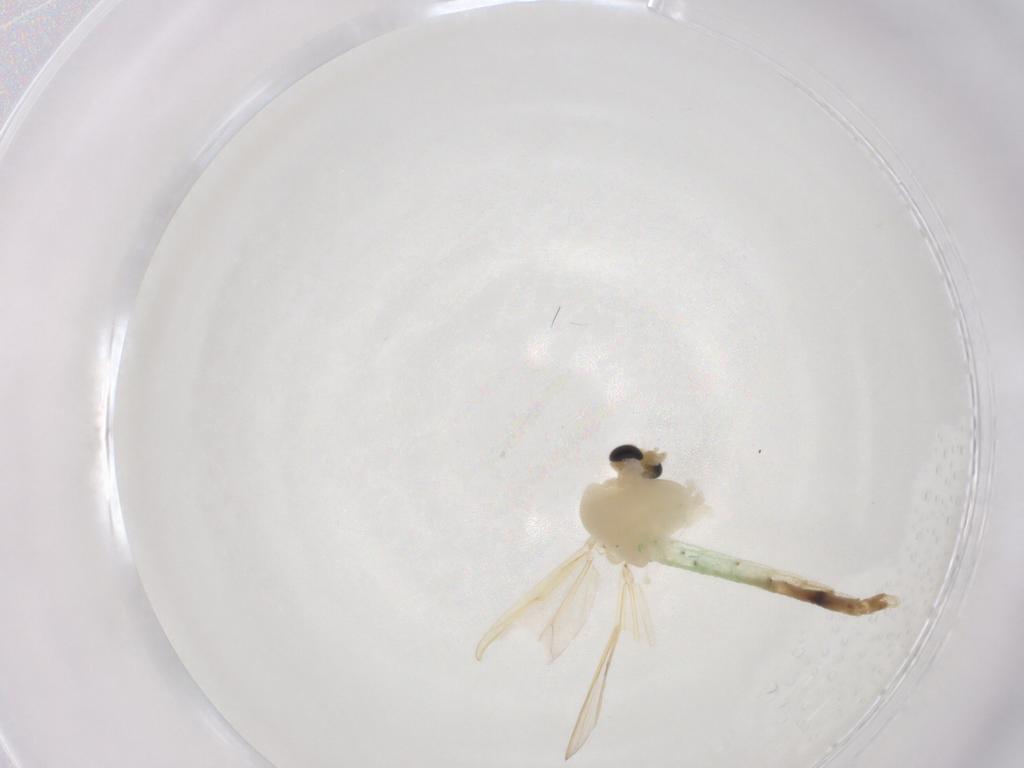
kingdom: Animalia
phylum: Arthropoda
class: Insecta
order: Diptera
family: Chironomidae
